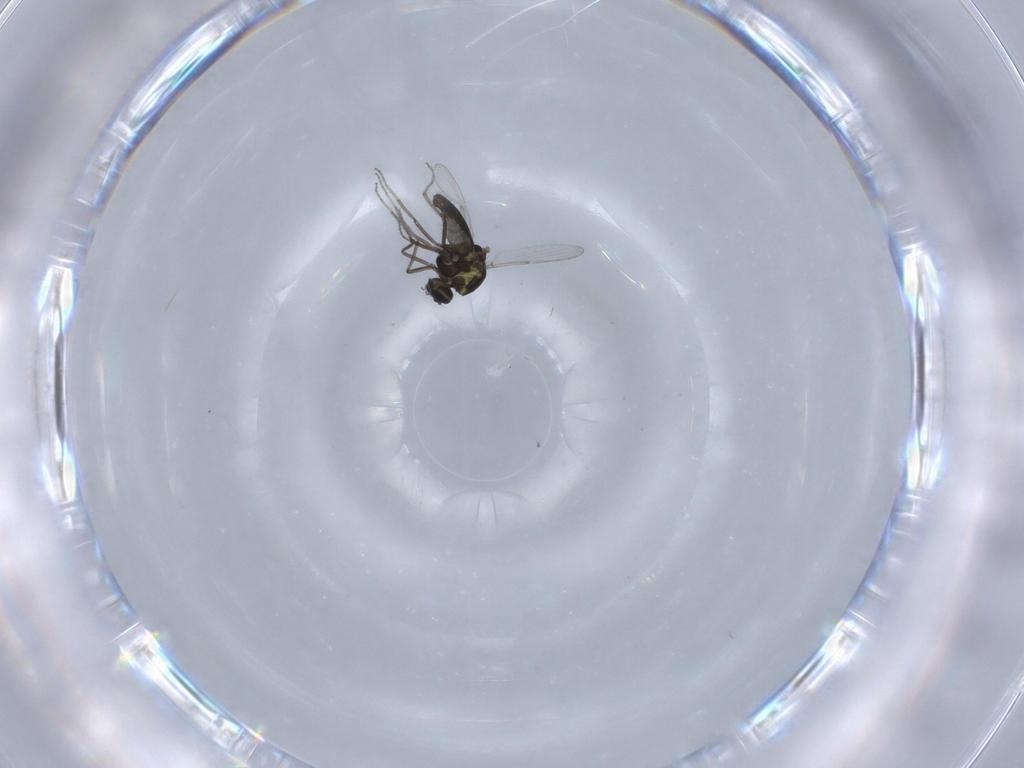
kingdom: Animalia
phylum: Arthropoda
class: Insecta
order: Diptera
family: Ceratopogonidae
